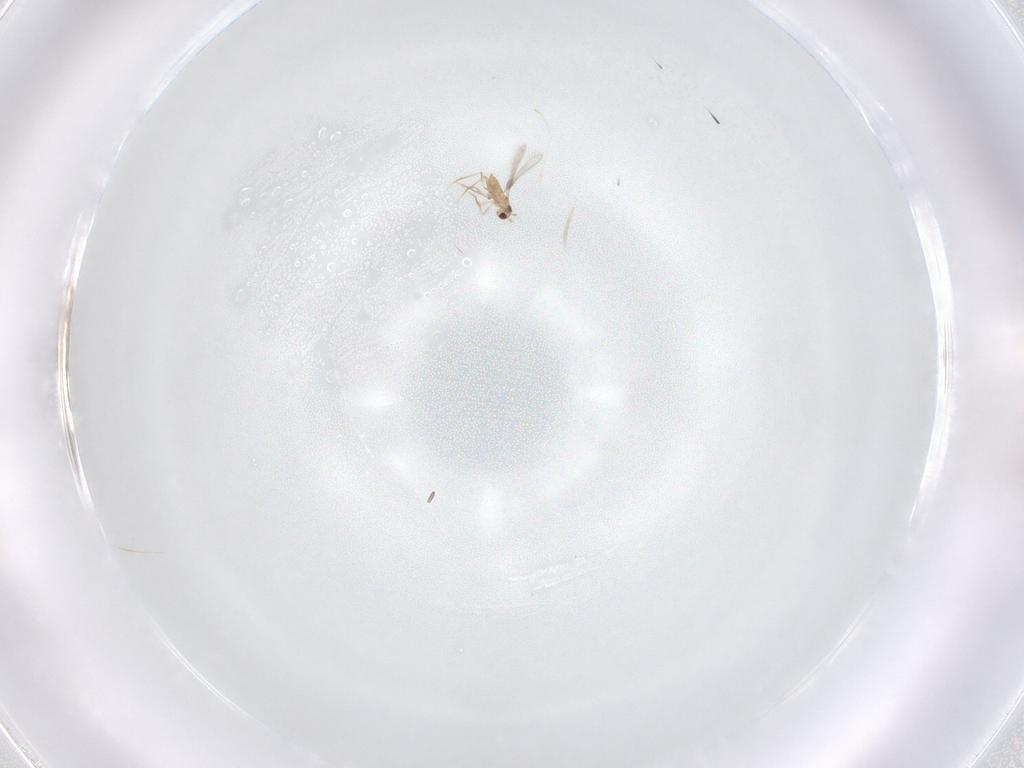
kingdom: Animalia
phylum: Arthropoda
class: Insecta
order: Hymenoptera
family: Mymaridae
